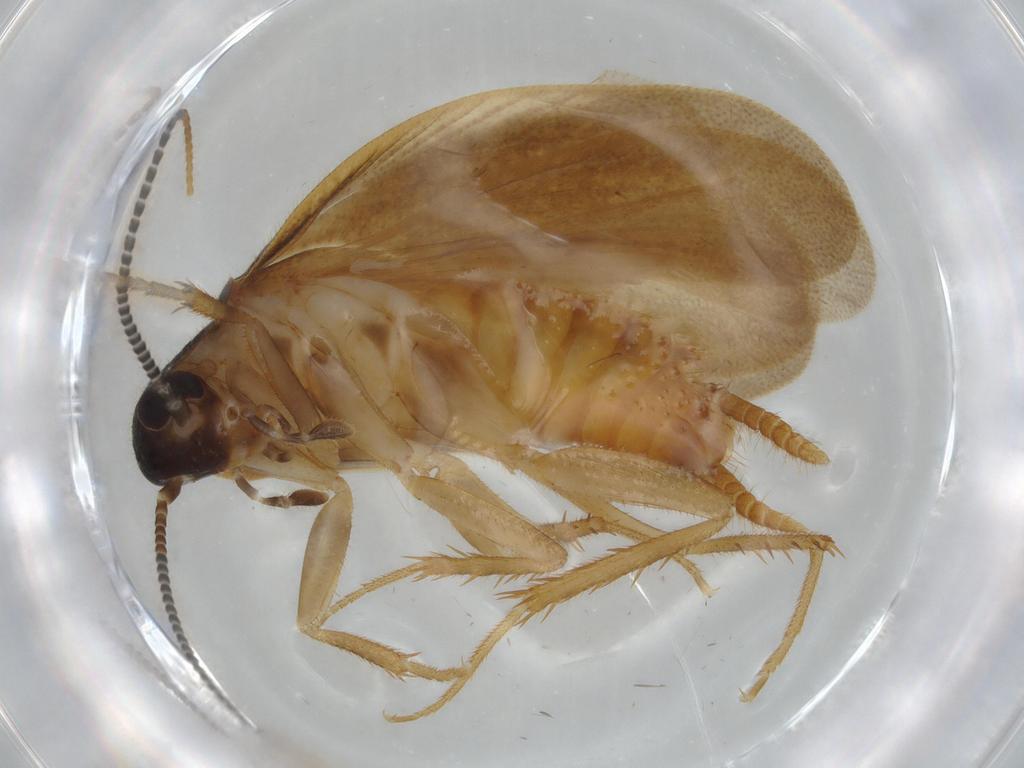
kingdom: Animalia
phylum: Arthropoda
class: Insecta
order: Blattodea
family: Ectobiidae
